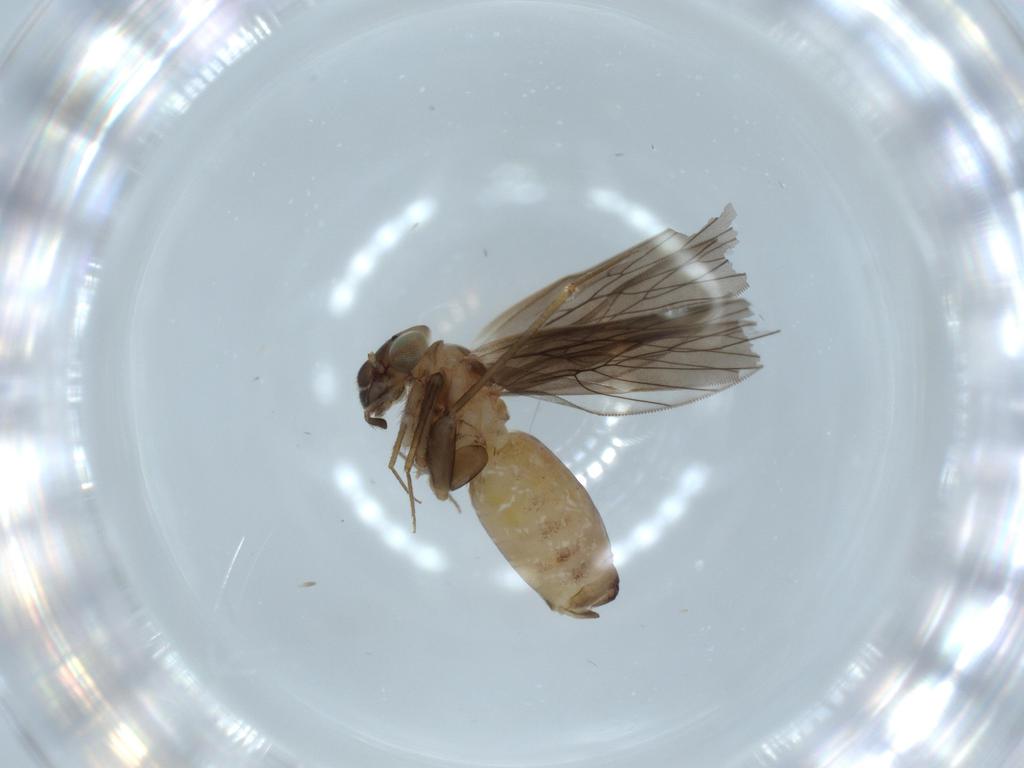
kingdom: Animalia
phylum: Arthropoda
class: Insecta
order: Psocodea
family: Lepidopsocidae
